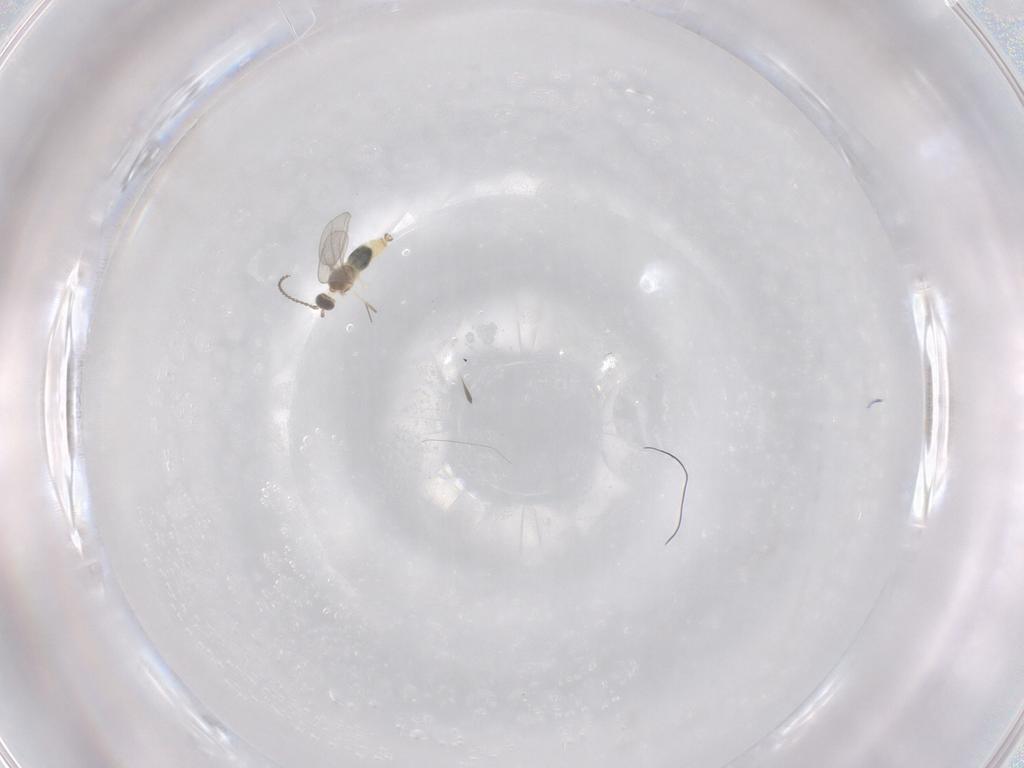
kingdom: Animalia
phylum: Arthropoda
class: Insecta
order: Diptera
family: Cecidomyiidae
